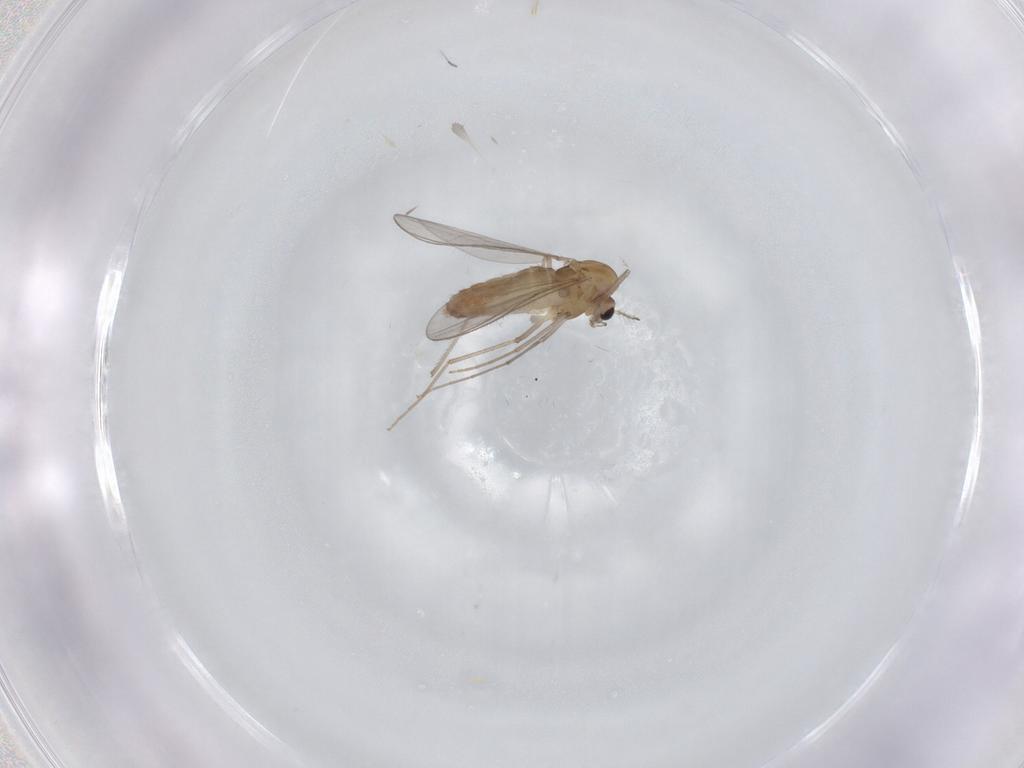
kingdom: Animalia
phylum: Arthropoda
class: Insecta
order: Diptera
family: Chironomidae
